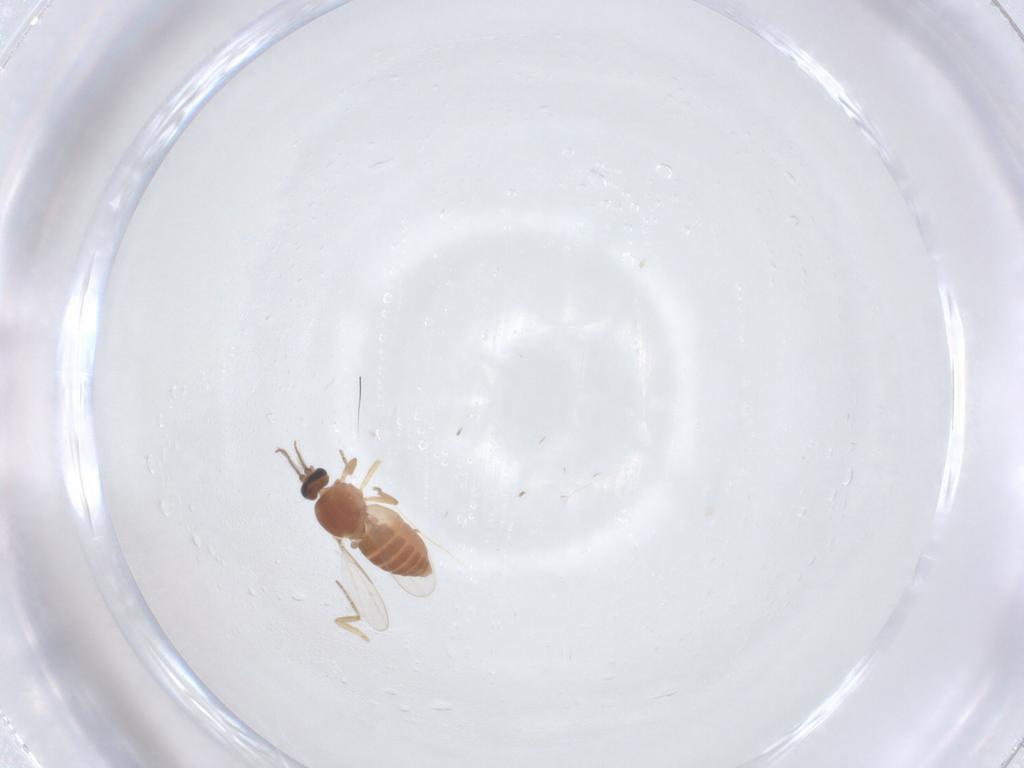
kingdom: Animalia
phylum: Arthropoda
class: Insecta
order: Diptera
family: Ceratopogonidae
